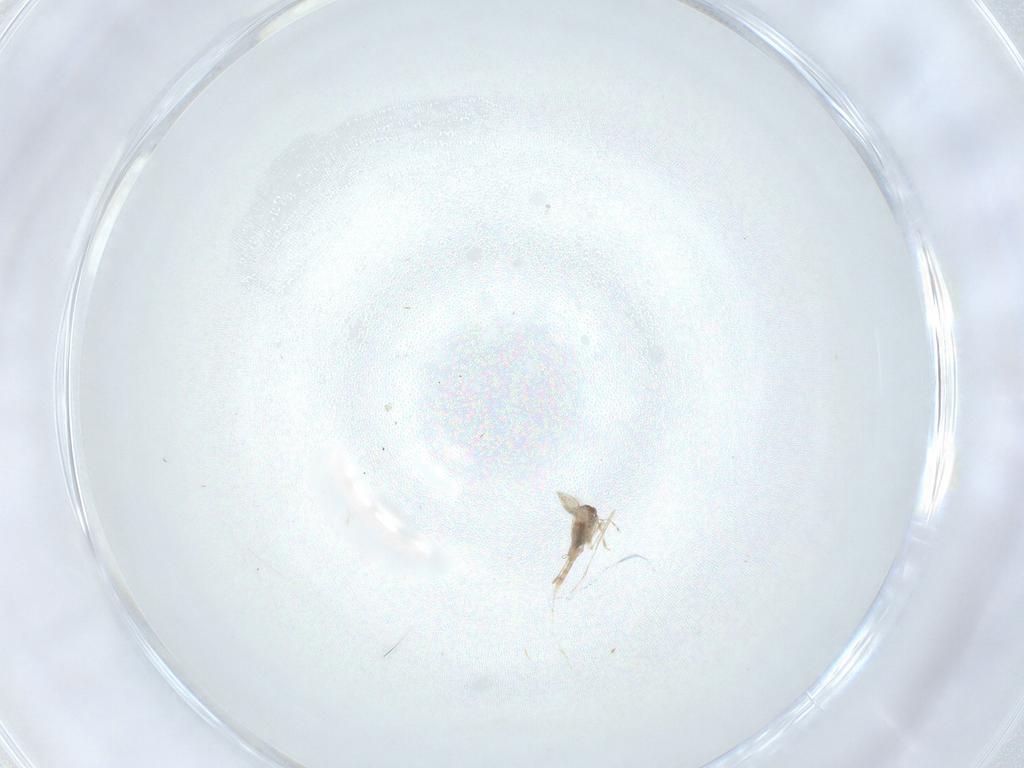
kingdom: Animalia
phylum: Arthropoda
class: Insecta
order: Diptera
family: Cecidomyiidae
